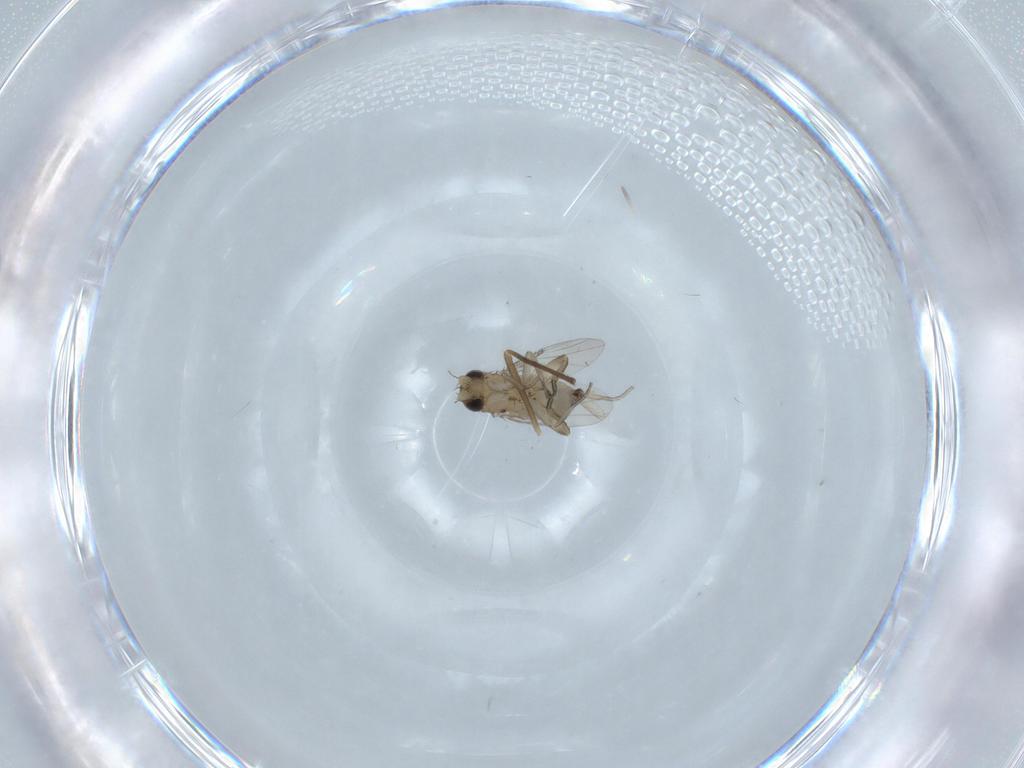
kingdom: Animalia
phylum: Arthropoda
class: Insecta
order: Diptera
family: Phoridae
